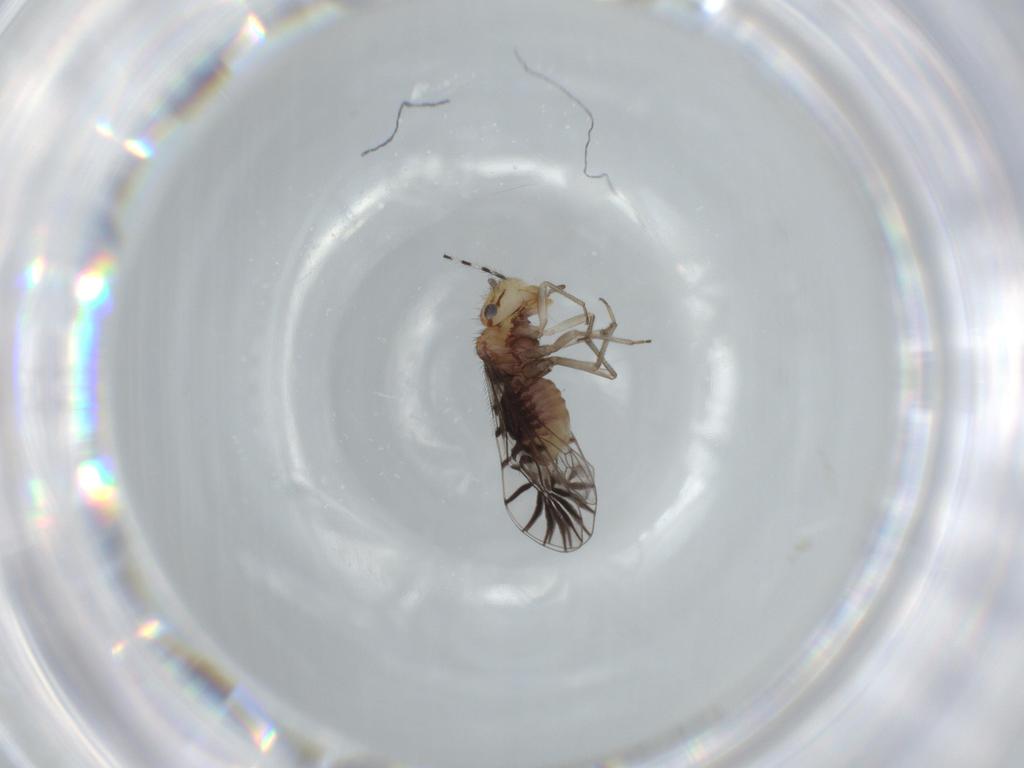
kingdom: Animalia
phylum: Arthropoda
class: Insecta
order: Psocodea
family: Amphipsocidae
